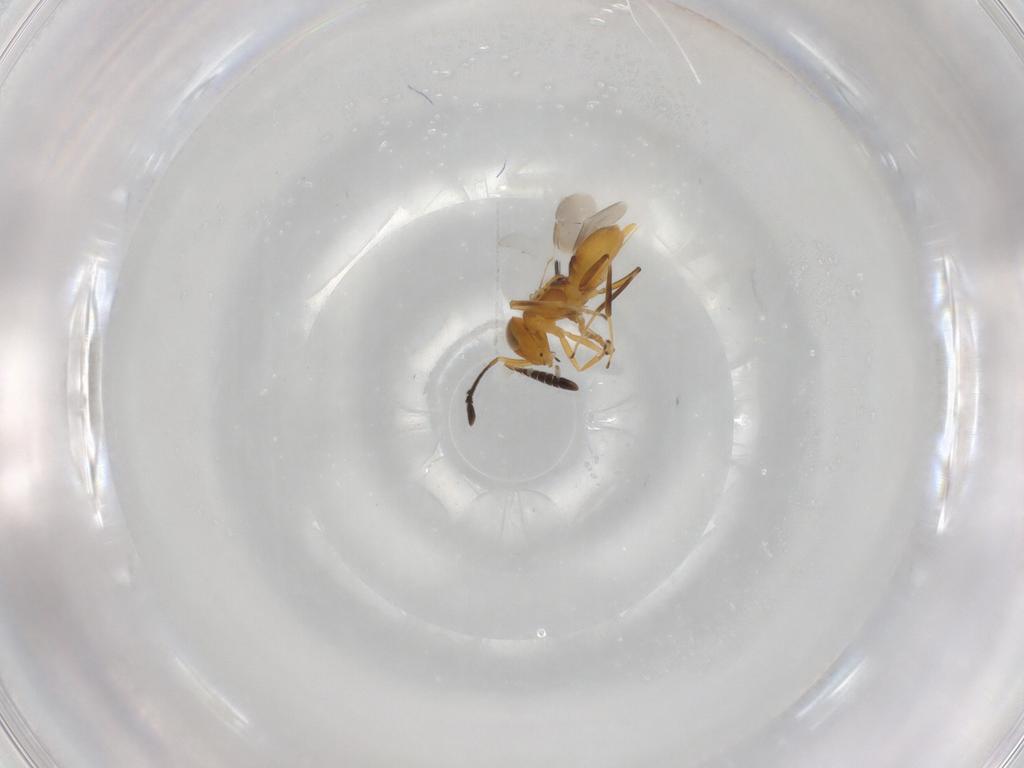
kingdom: Animalia
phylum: Arthropoda
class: Insecta
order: Hymenoptera
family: Encyrtidae
